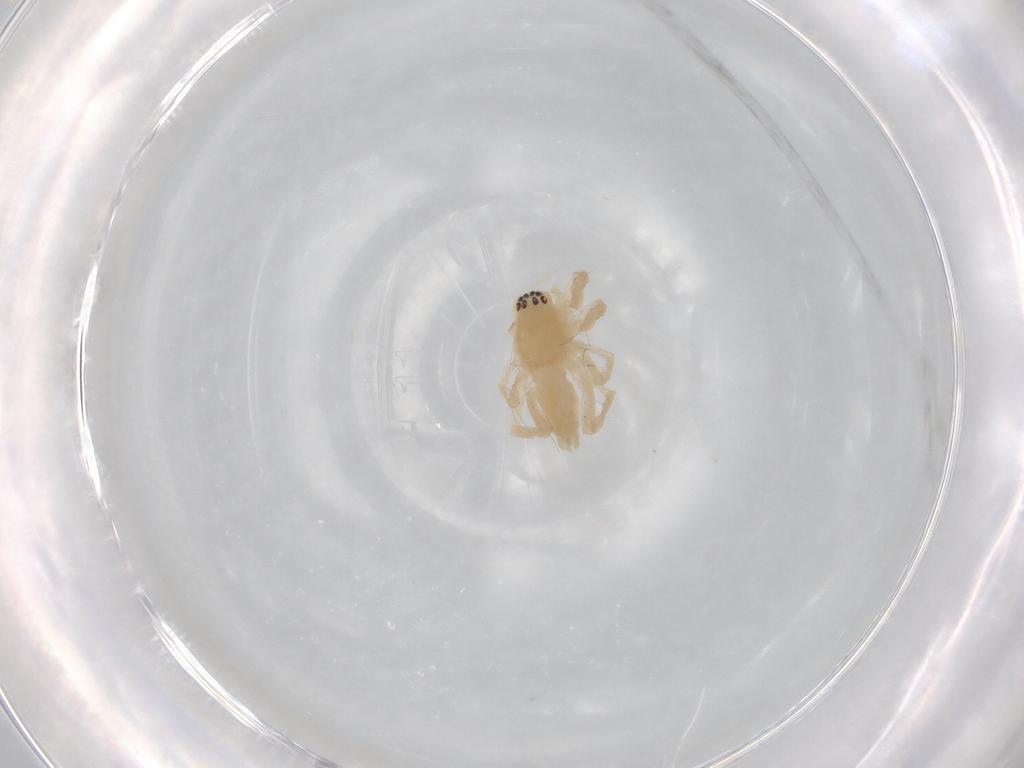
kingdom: Animalia
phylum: Arthropoda
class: Arachnida
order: Araneae
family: Anyphaenidae
